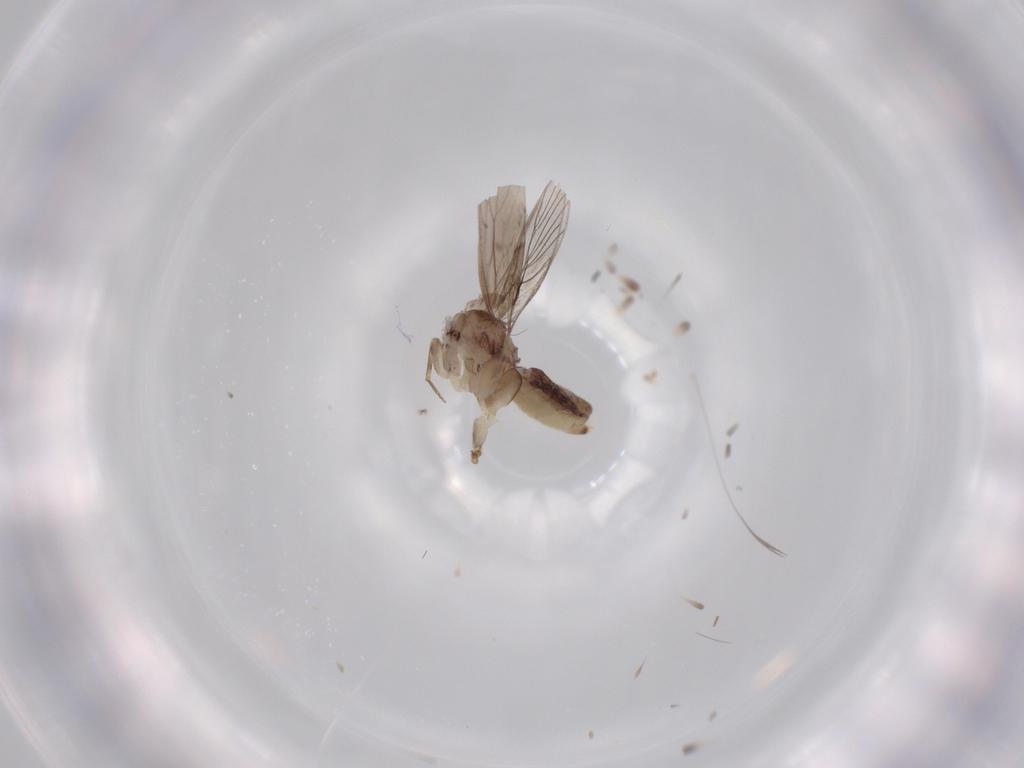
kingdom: Animalia
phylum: Arthropoda
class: Insecta
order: Psocodea
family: Lepidopsocidae
